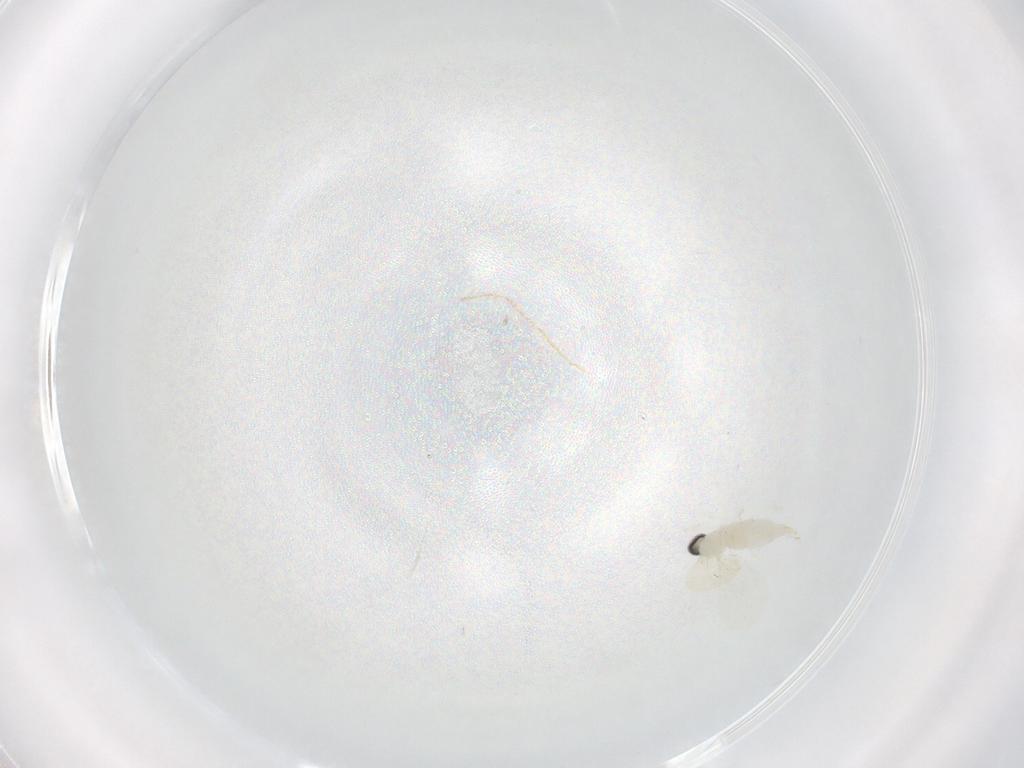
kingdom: Animalia
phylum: Arthropoda
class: Insecta
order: Diptera
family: Cecidomyiidae
